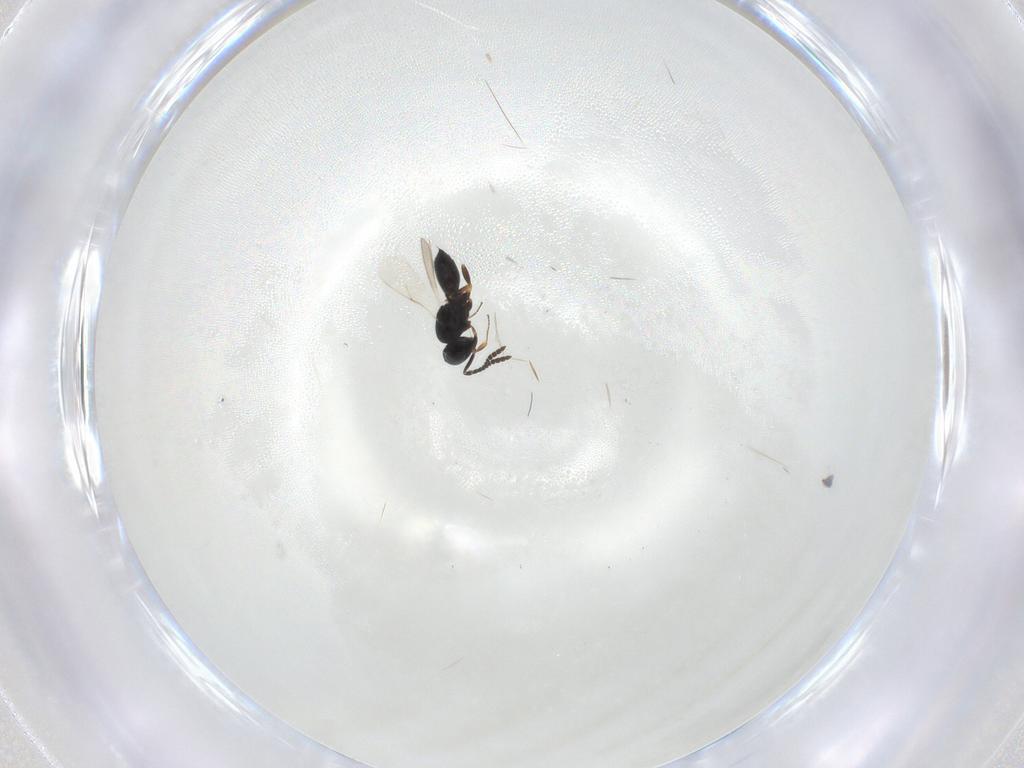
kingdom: Animalia
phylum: Arthropoda
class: Insecta
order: Hymenoptera
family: Scelionidae
